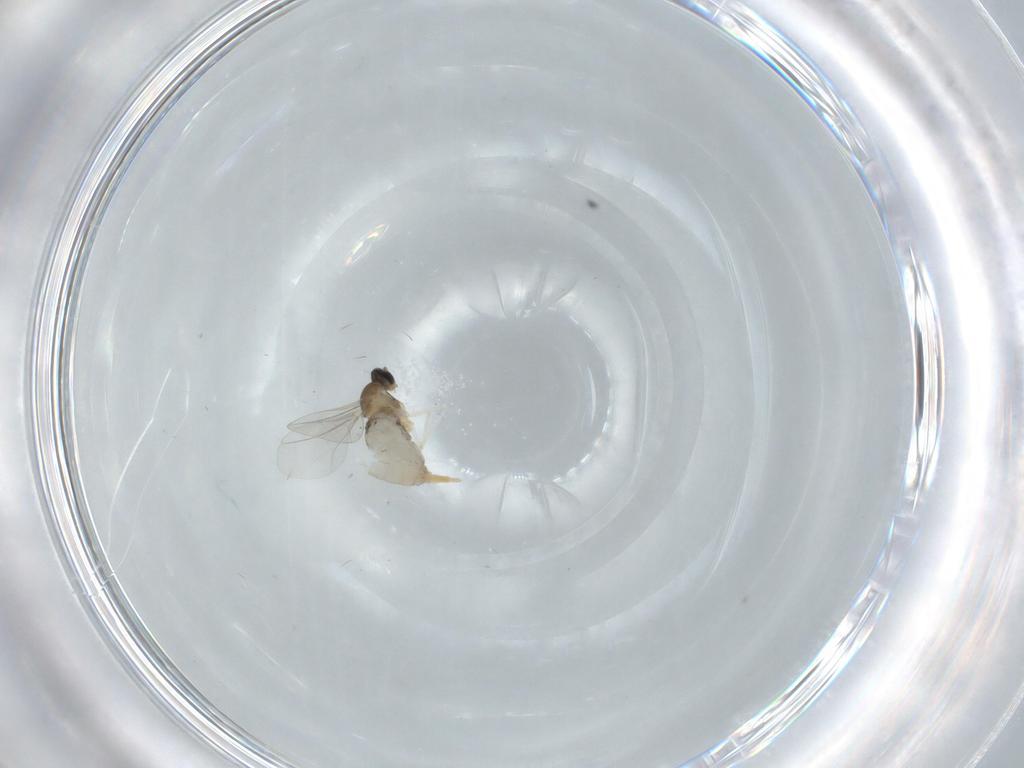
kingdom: Animalia
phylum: Arthropoda
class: Insecta
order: Diptera
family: Cecidomyiidae
